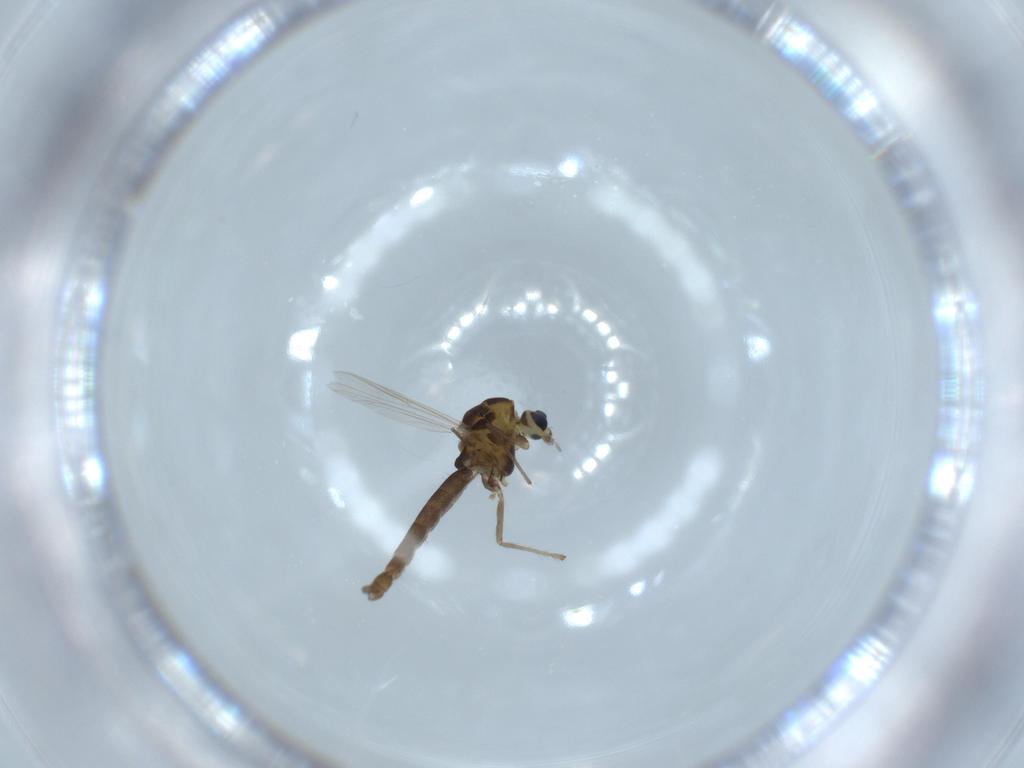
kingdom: Animalia
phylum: Arthropoda
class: Insecta
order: Diptera
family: Chironomidae
